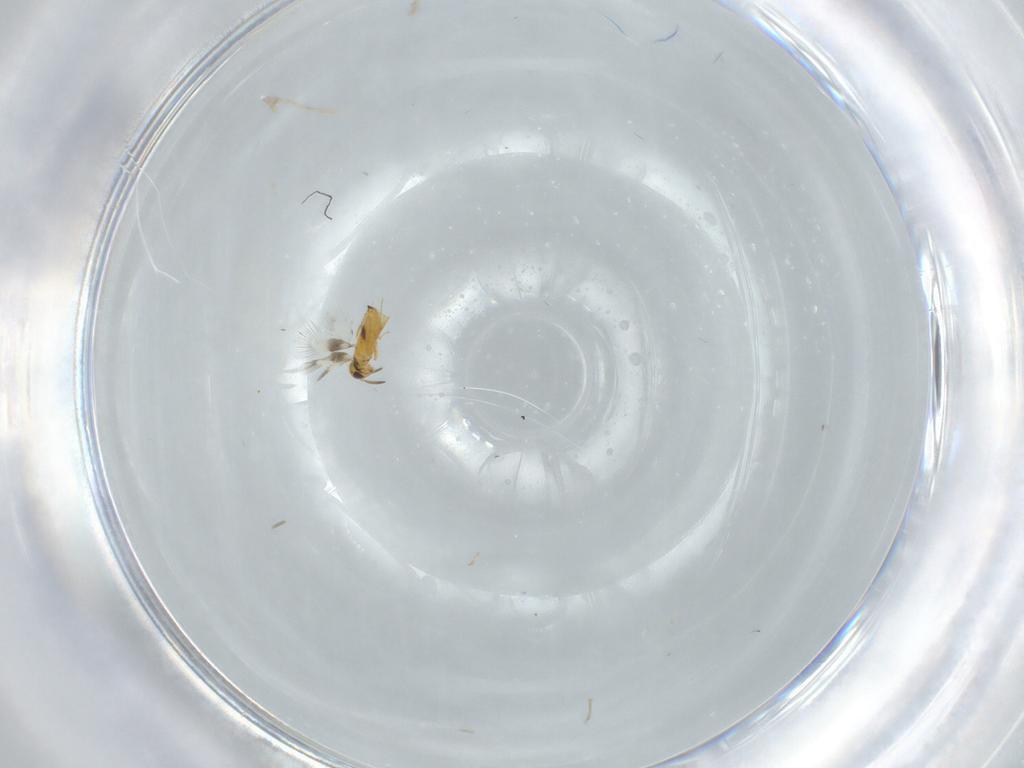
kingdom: Animalia
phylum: Arthropoda
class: Insecta
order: Hymenoptera
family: Signiphoridae
